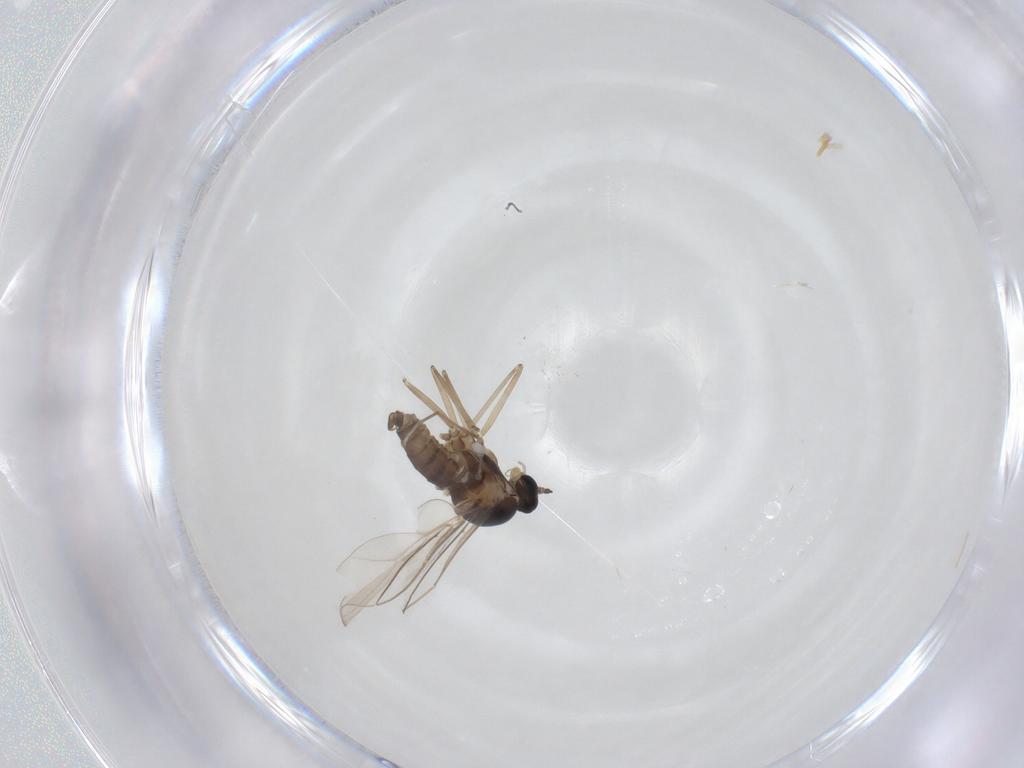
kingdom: Animalia
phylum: Arthropoda
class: Insecta
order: Diptera
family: Cecidomyiidae
